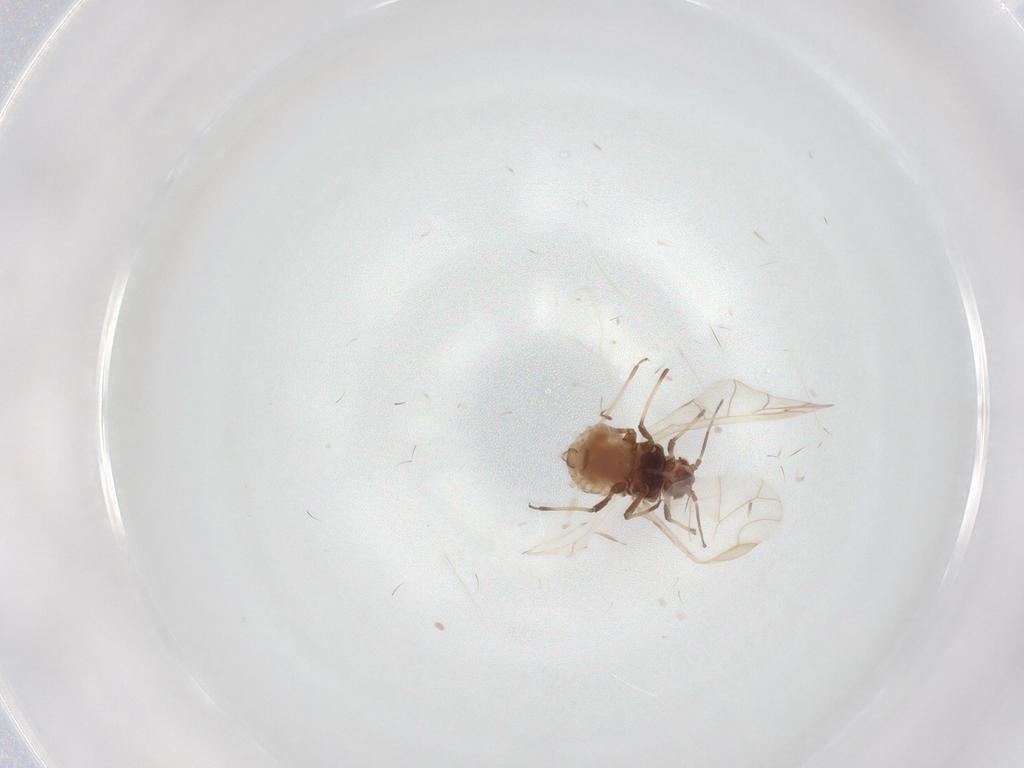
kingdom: Animalia
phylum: Arthropoda
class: Insecta
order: Hemiptera
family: Aphididae
